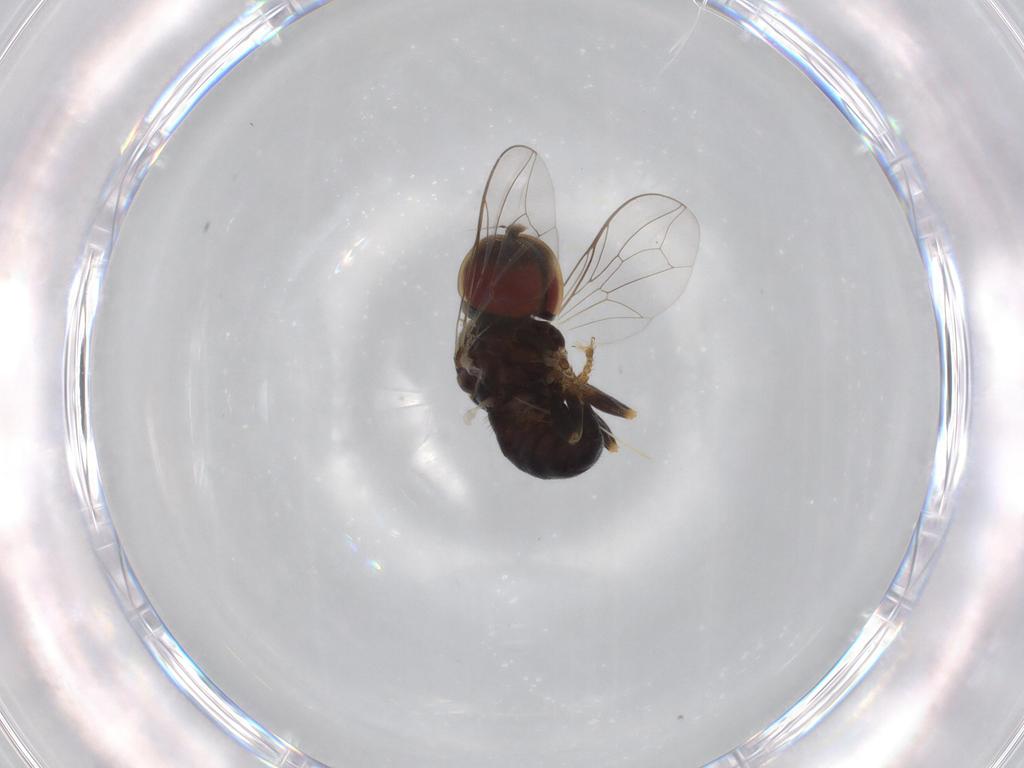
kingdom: Animalia
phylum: Arthropoda
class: Insecta
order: Diptera
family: Pipunculidae
